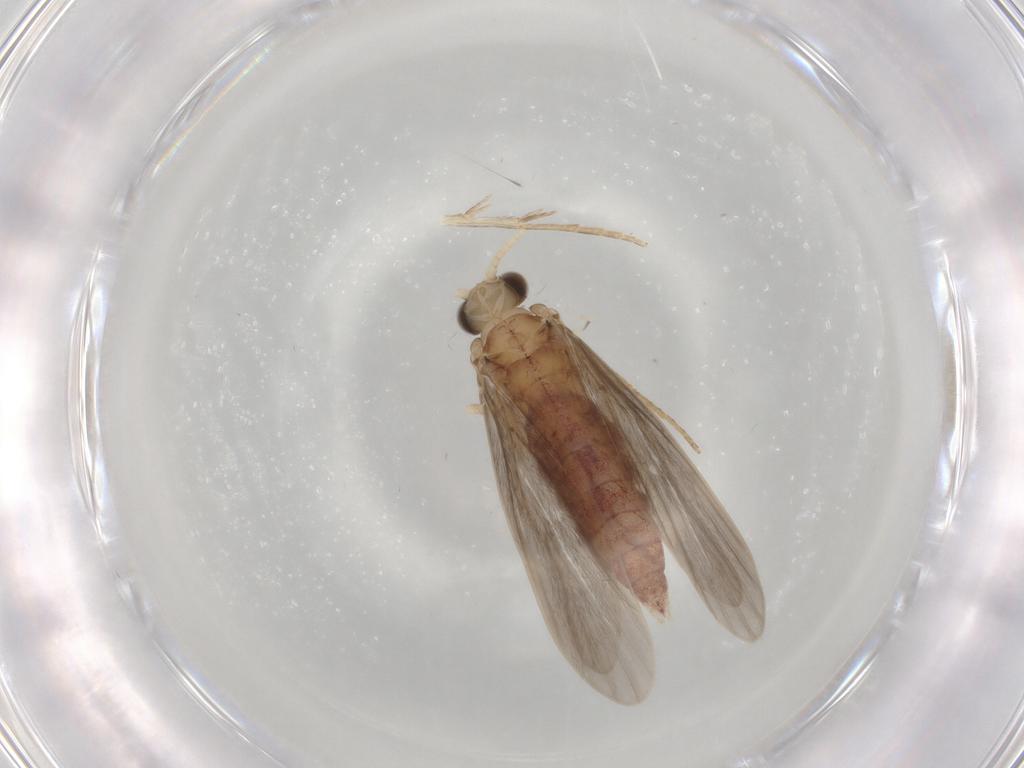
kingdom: Animalia
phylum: Arthropoda
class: Insecta
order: Trichoptera
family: Polycentropodidae
